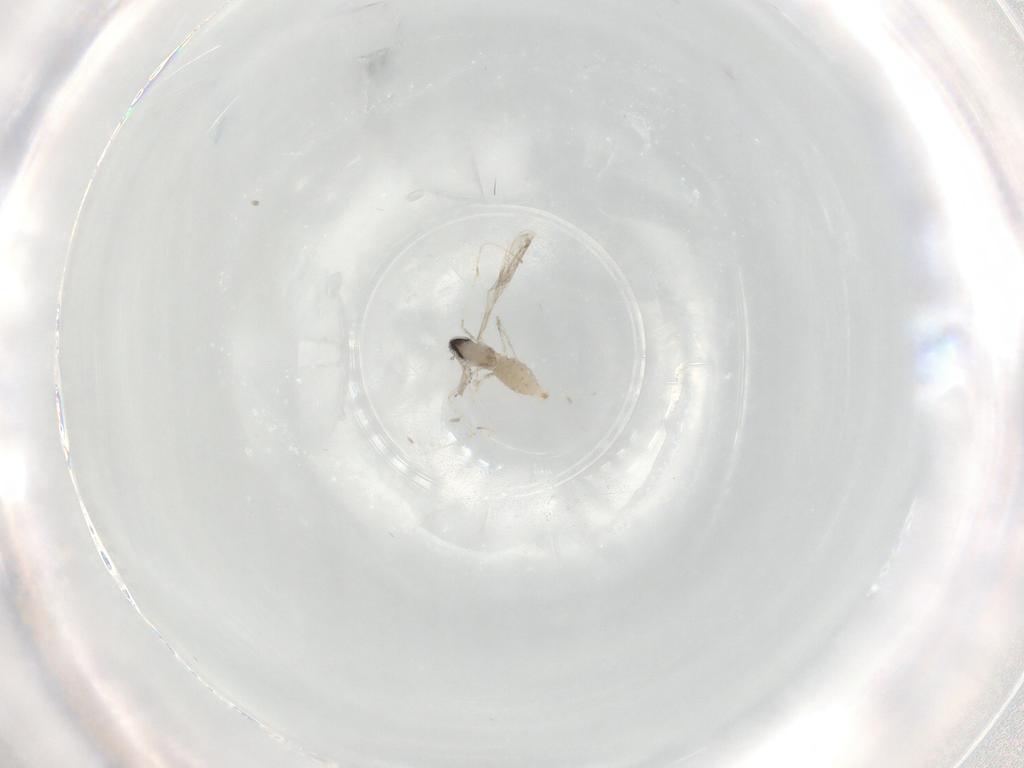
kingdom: Animalia
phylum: Arthropoda
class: Insecta
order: Diptera
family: Cecidomyiidae
